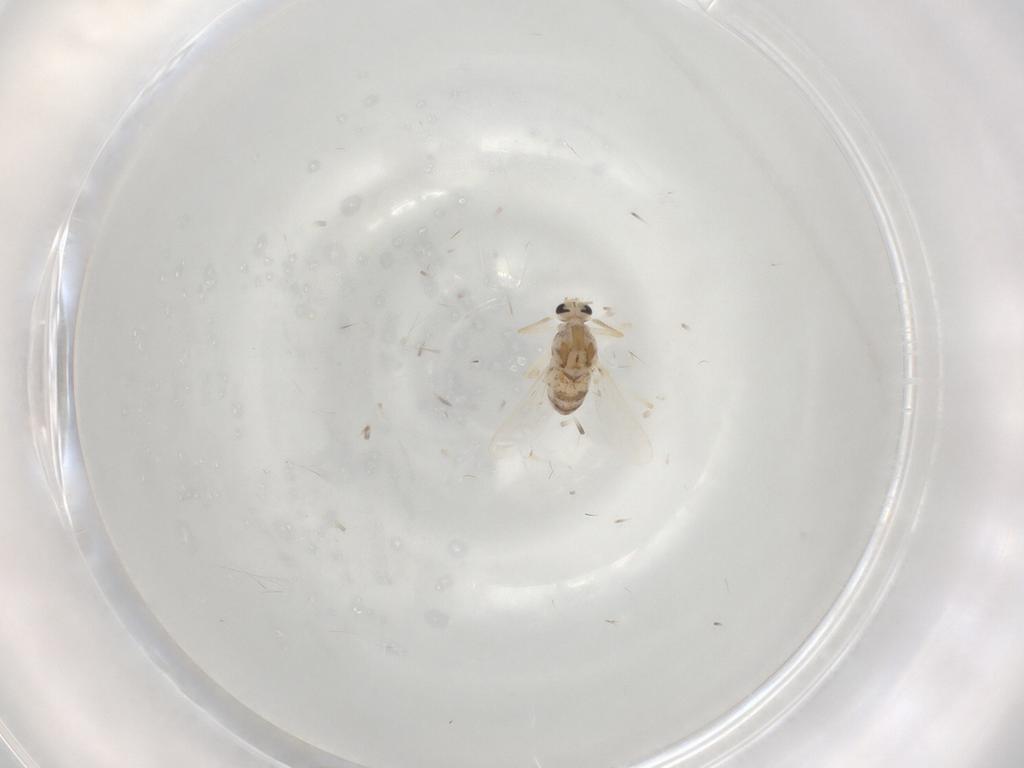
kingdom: Animalia
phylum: Arthropoda
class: Insecta
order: Diptera
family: Chironomidae
